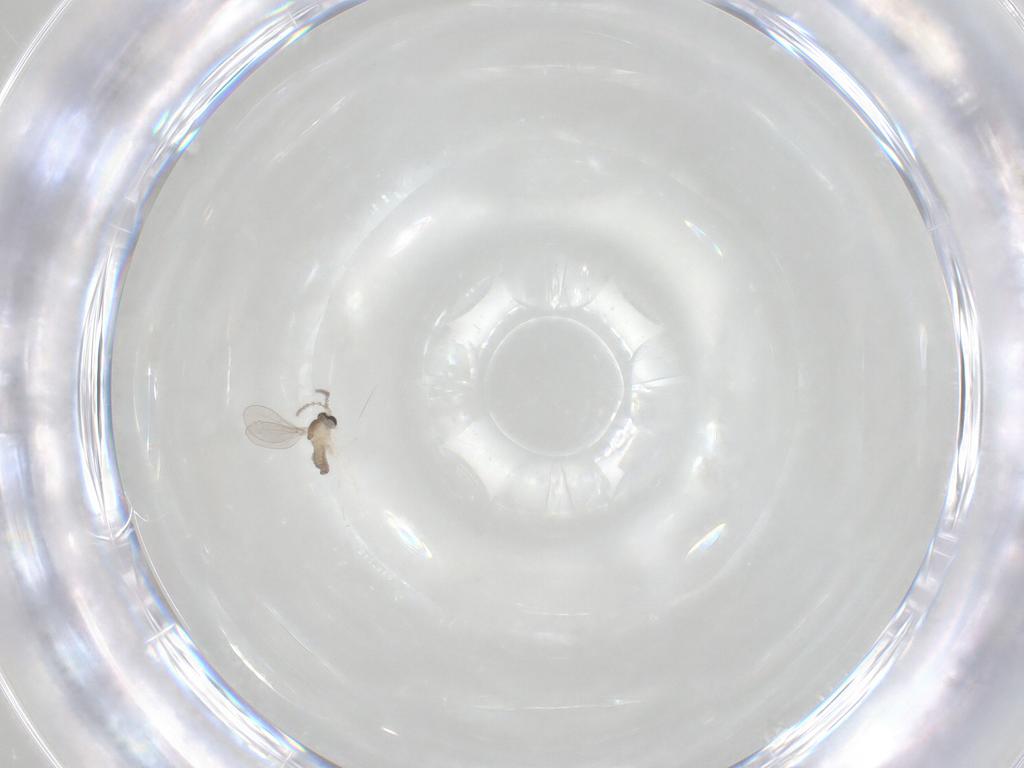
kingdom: Animalia
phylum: Arthropoda
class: Insecta
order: Diptera
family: Cecidomyiidae
